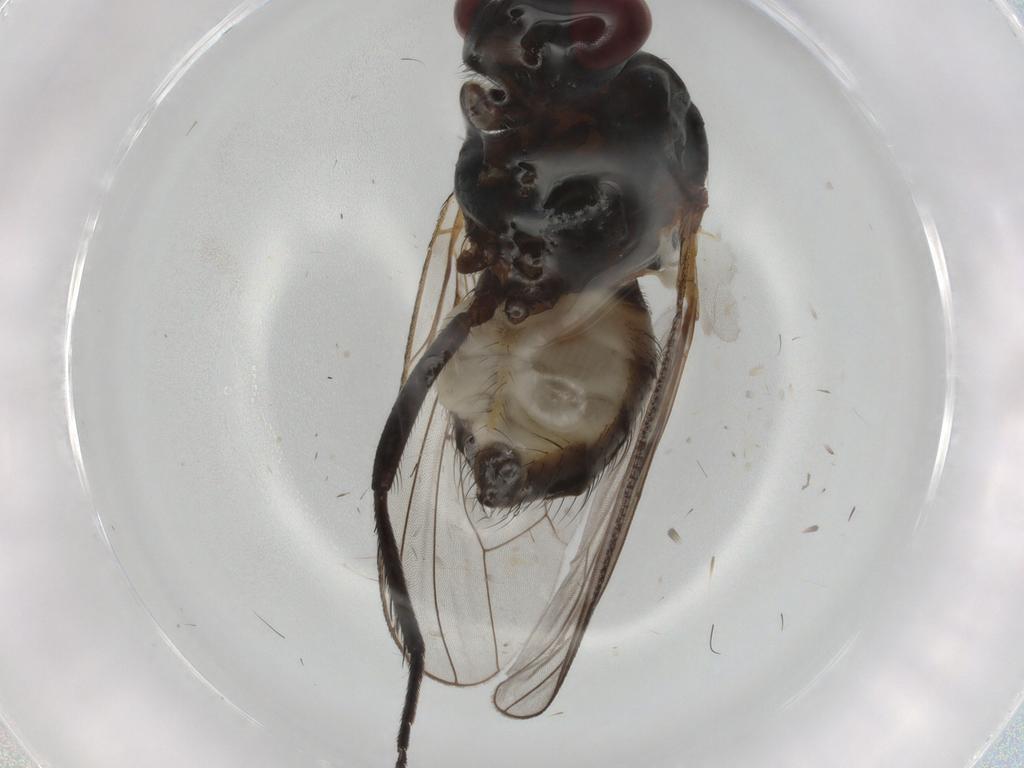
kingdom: Animalia
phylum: Arthropoda
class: Insecta
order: Diptera
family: Anthomyiidae
